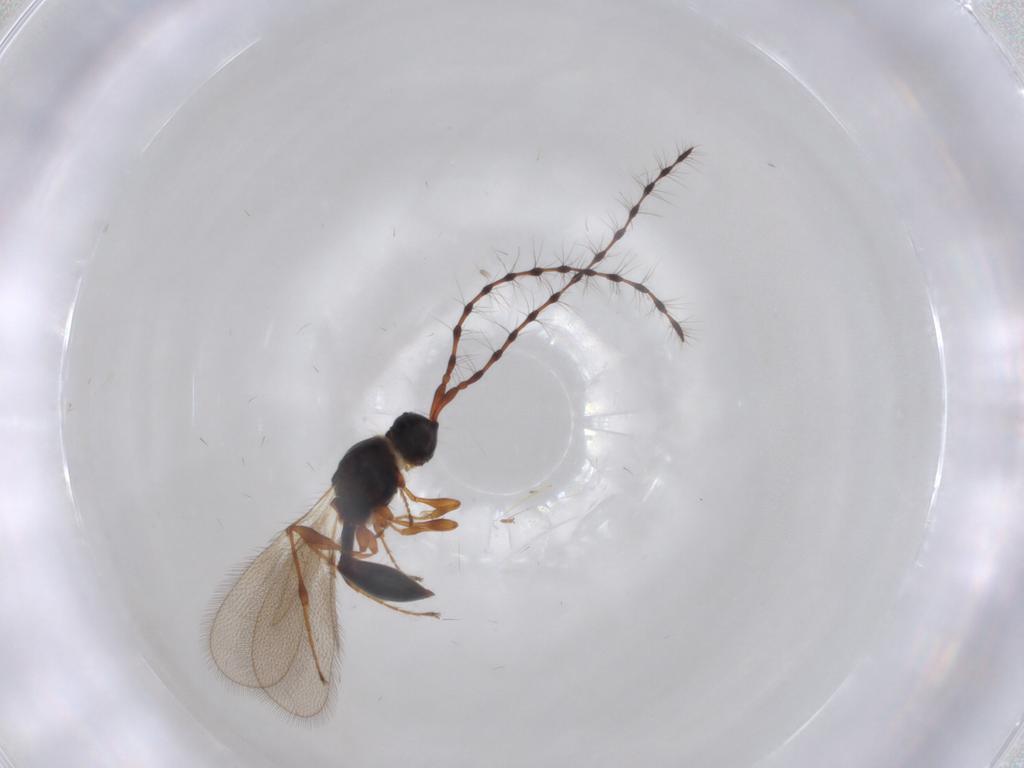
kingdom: Animalia
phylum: Arthropoda
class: Insecta
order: Hymenoptera
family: Diapriidae
